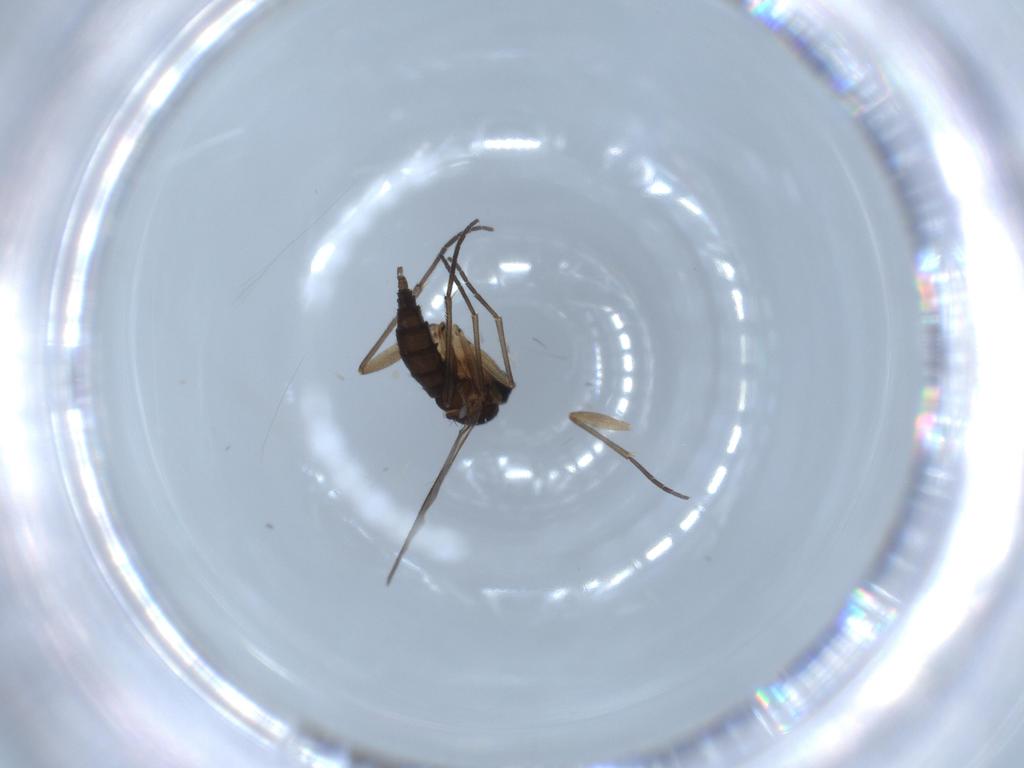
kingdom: Animalia
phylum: Arthropoda
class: Insecta
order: Diptera
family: Sciaridae
